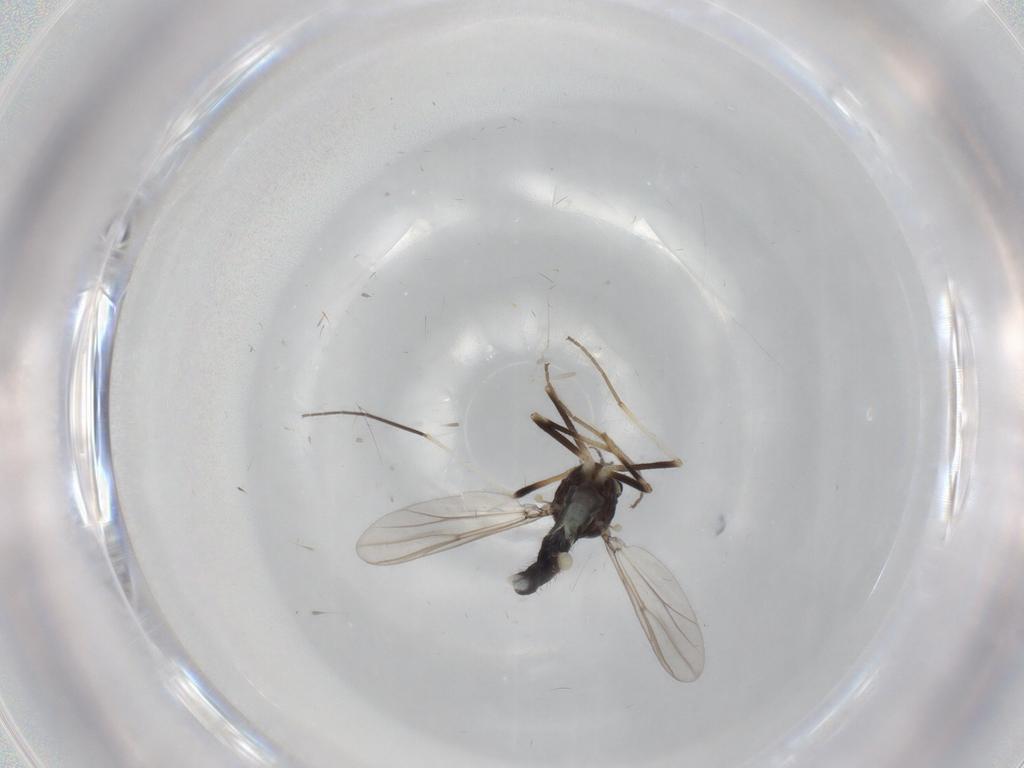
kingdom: Animalia
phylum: Arthropoda
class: Insecta
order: Diptera
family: Chironomidae
